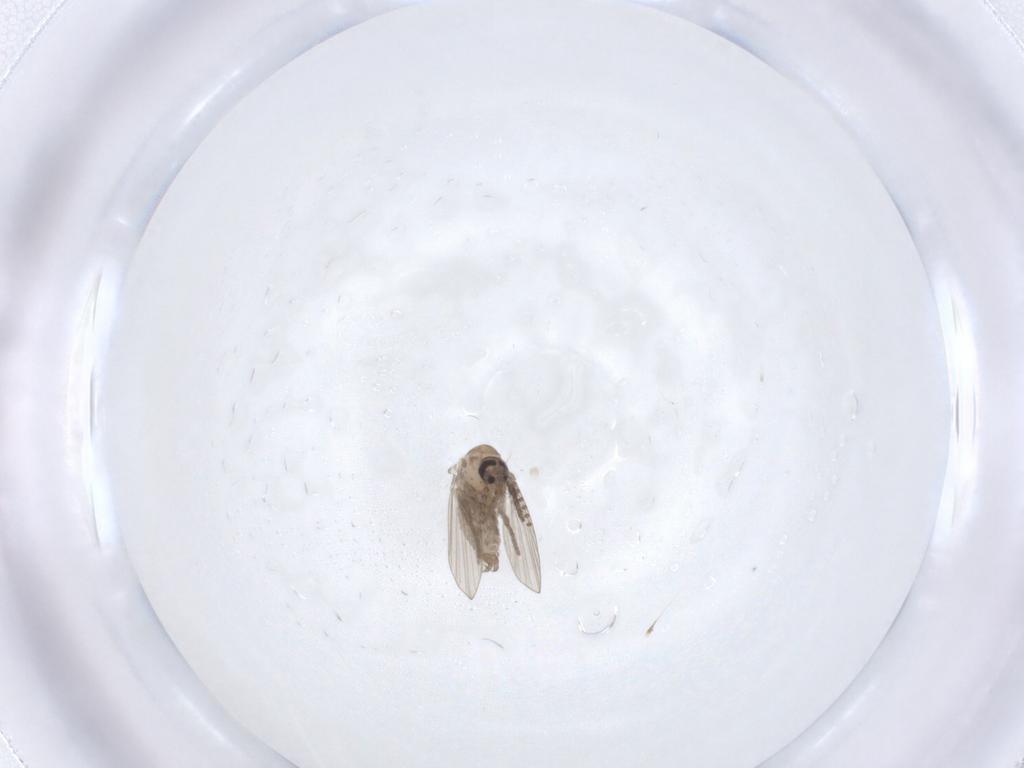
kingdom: Animalia
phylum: Arthropoda
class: Insecta
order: Diptera
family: Psychodidae
